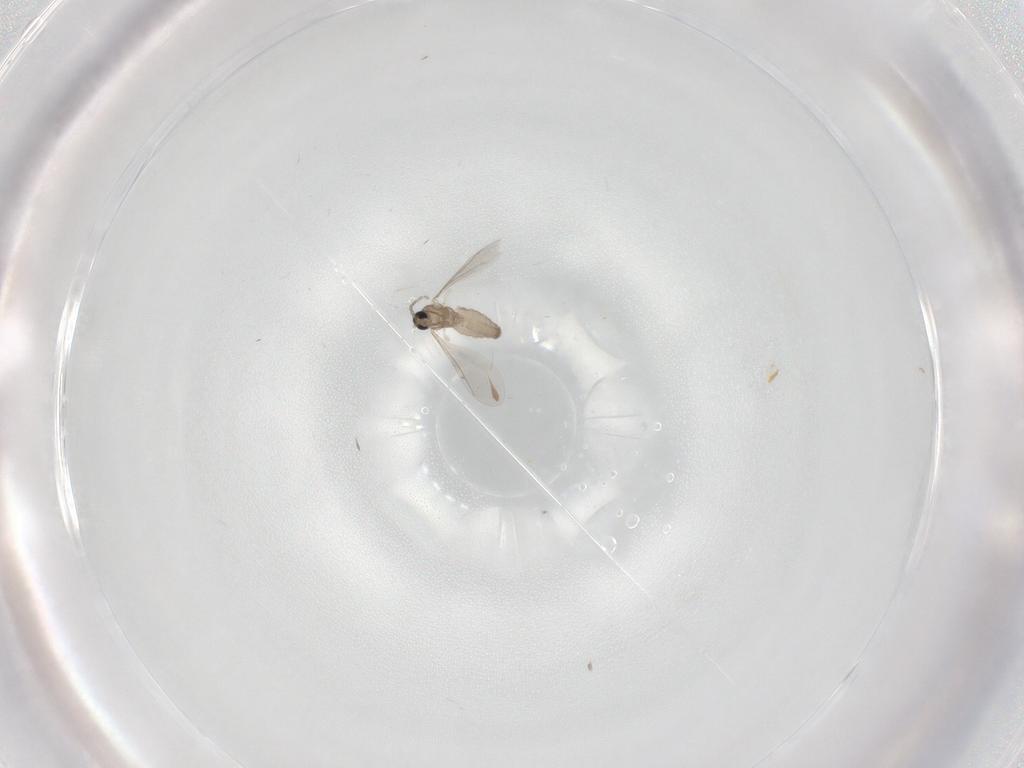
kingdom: Animalia
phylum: Arthropoda
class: Insecta
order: Diptera
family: Cecidomyiidae
